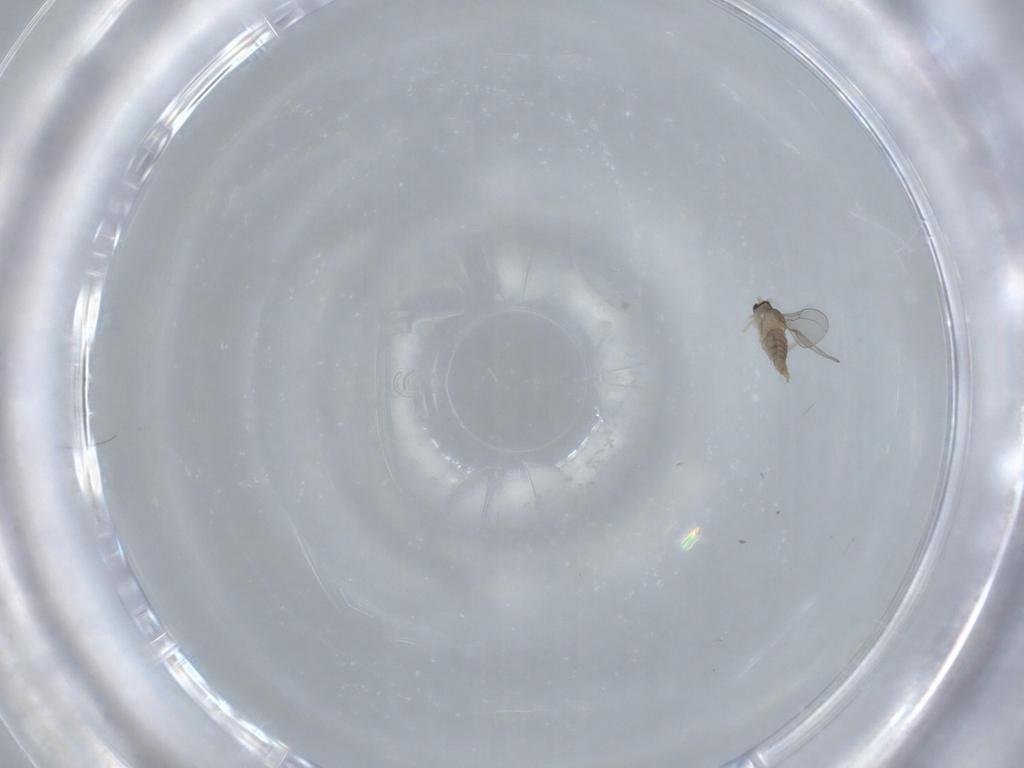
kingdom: Animalia
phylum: Arthropoda
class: Insecta
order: Diptera
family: Cecidomyiidae
